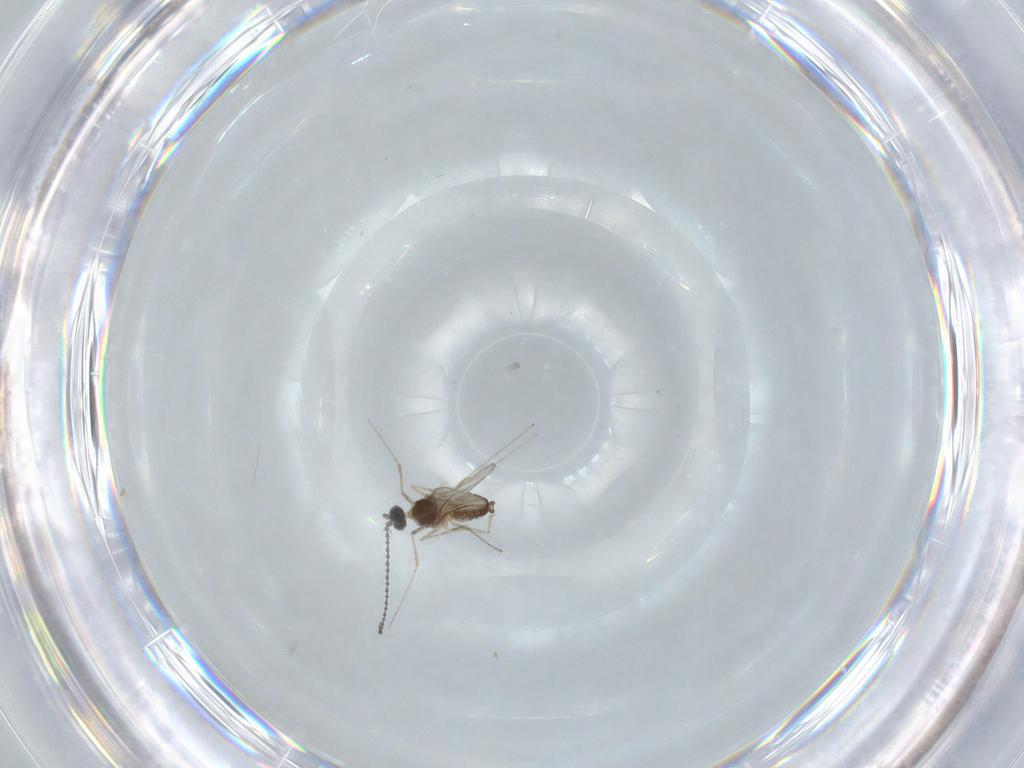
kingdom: Animalia
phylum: Arthropoda
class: Insecta
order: Diptera
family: Cecidomyiidae
